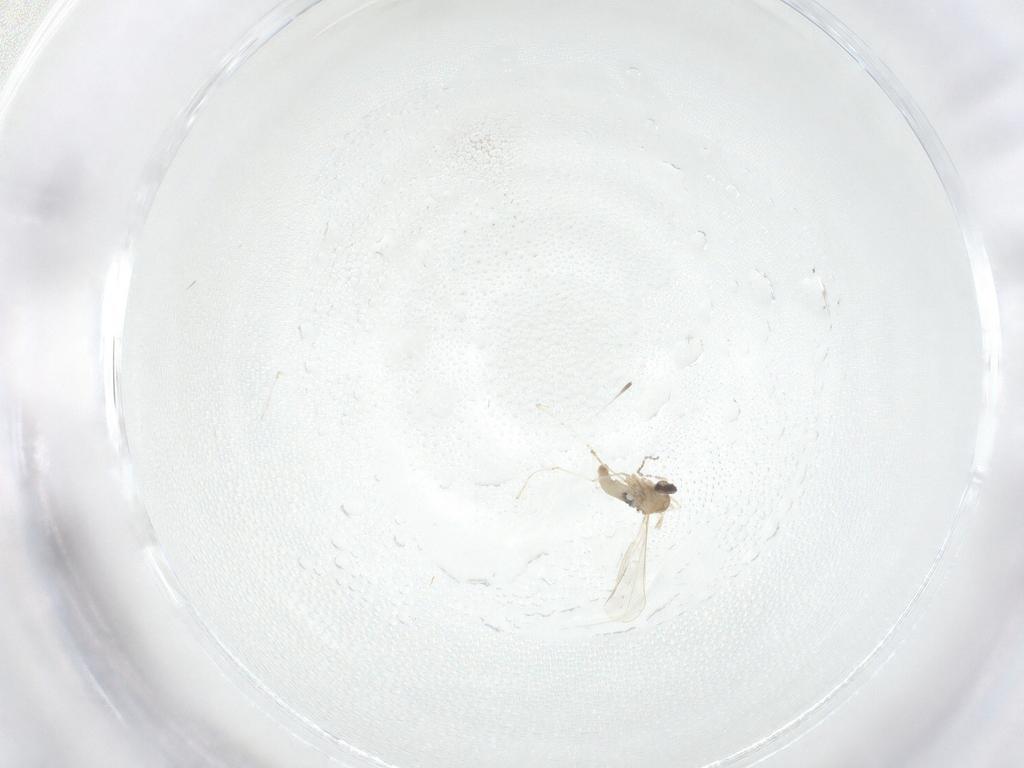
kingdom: Animalia
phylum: Arthropoda
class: Insecta
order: Diptera
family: Cecidomyiidae
